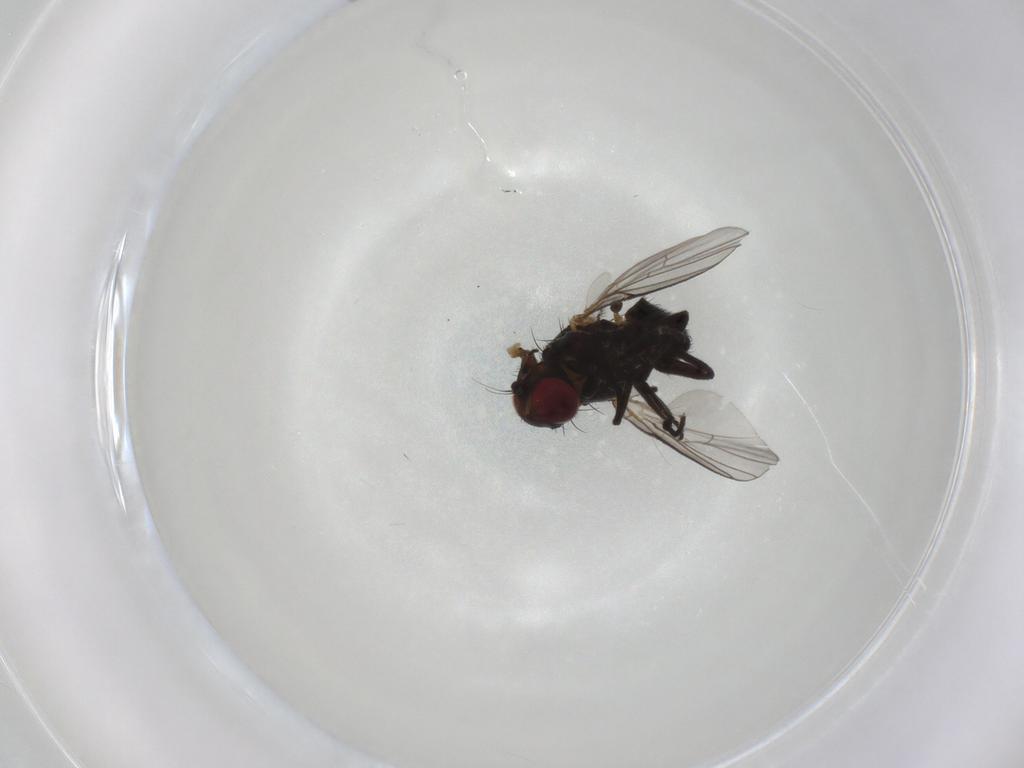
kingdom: Animalia
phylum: Arthropoda
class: Insecta
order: Diptera
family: Agromyzidae
